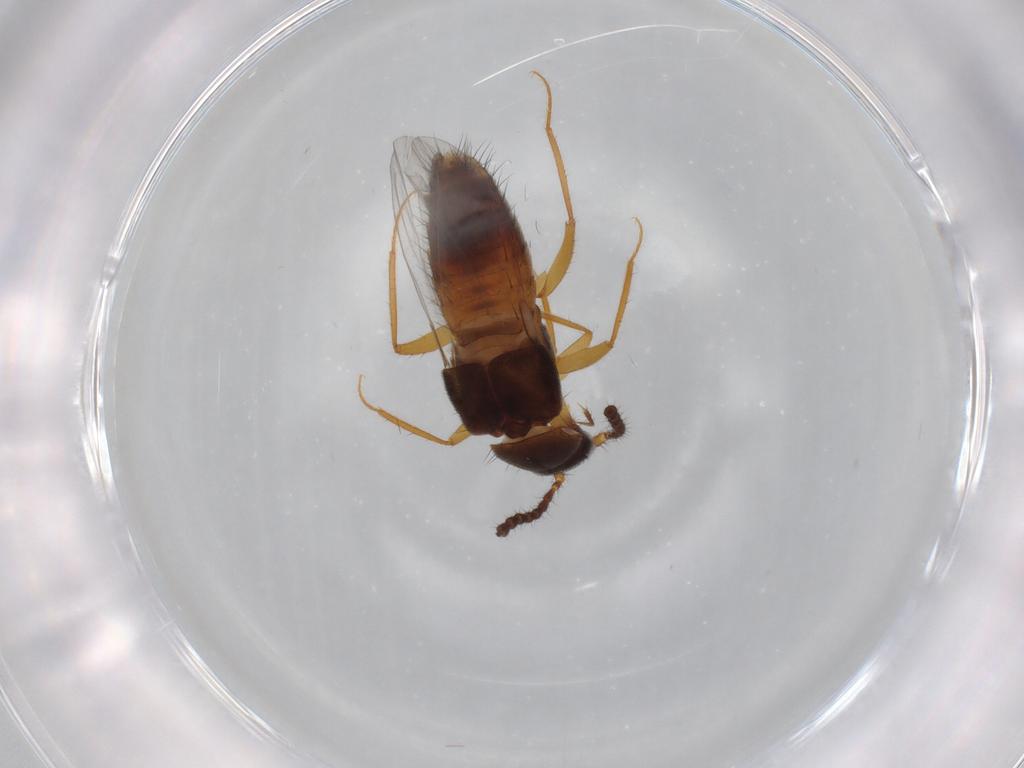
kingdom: Animalia
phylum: Arthropoda
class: Insecta
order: Coleoptera
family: Staphylinidae
